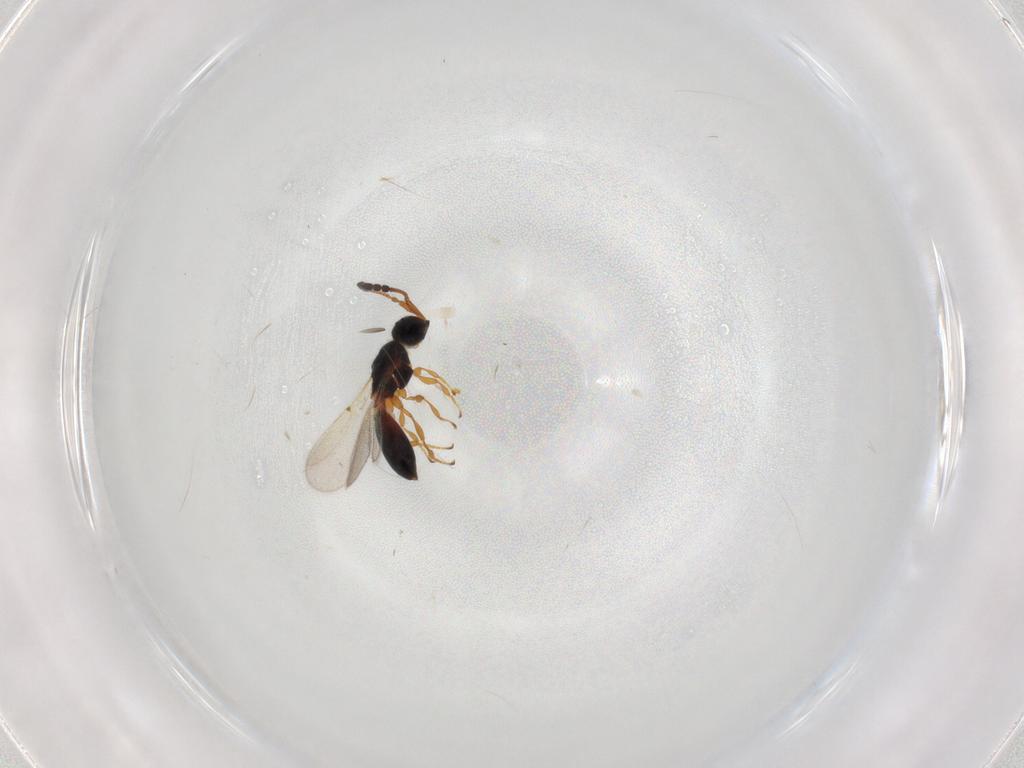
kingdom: Animalia
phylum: Arthropoda
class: Insecta
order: Hymenoptera
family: Diapriidae
